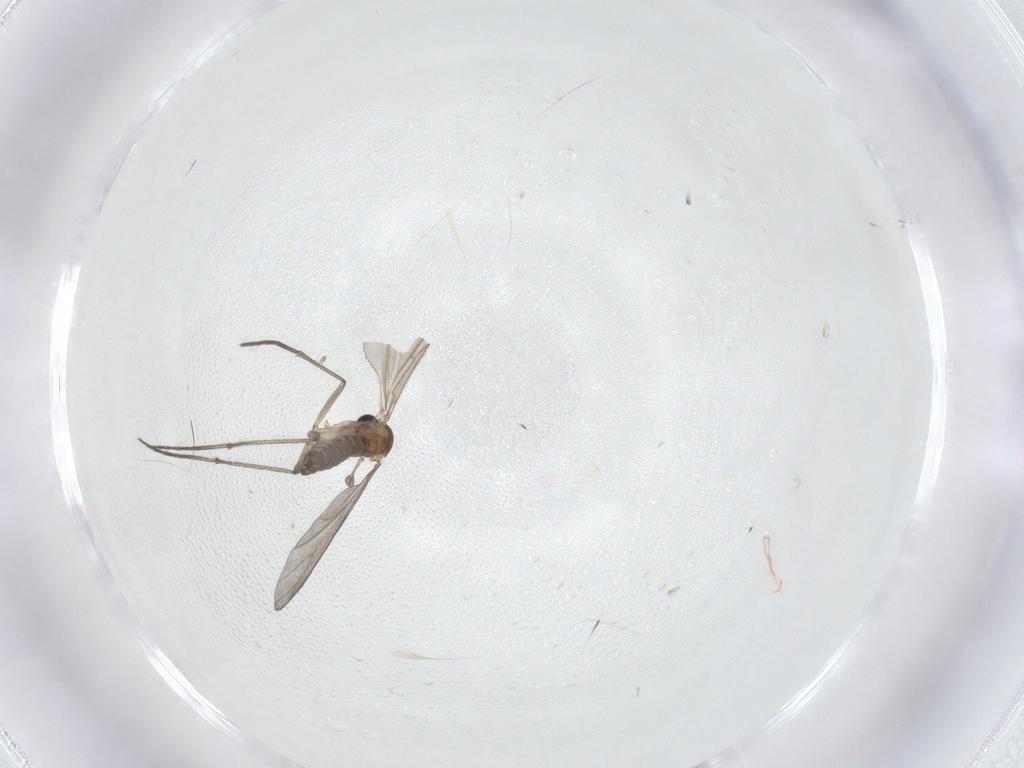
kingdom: Animalia
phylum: Arthropoda
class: Insecta
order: Diptera
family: Sciaridae
